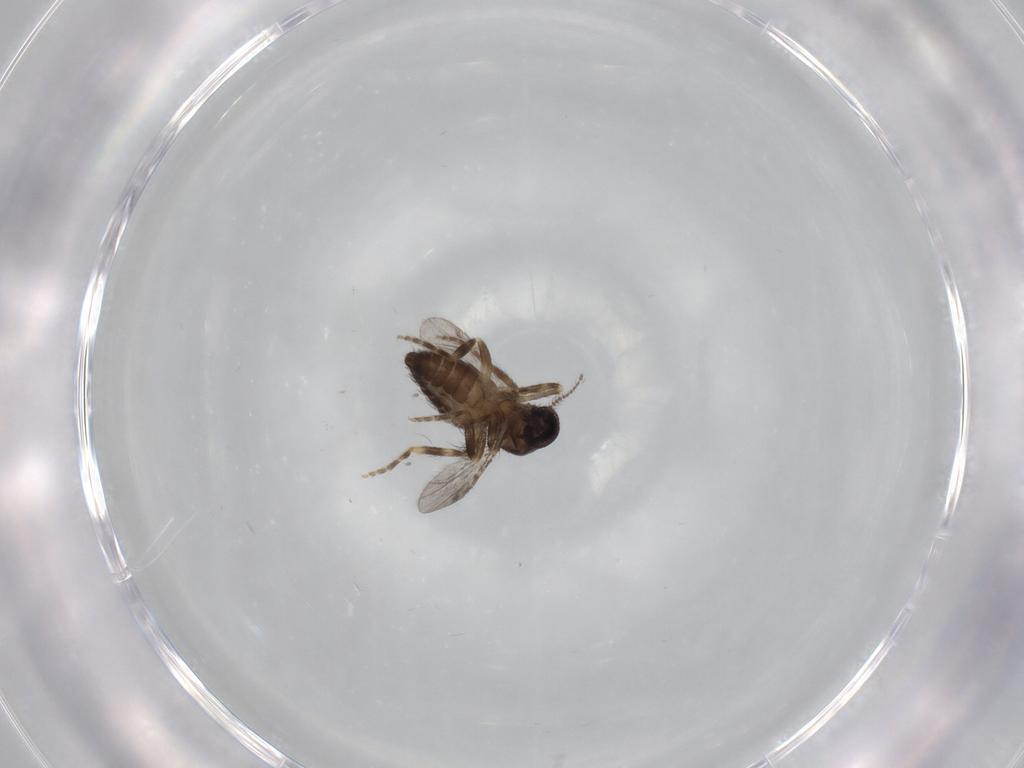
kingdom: Animalia
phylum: Arthropoda
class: Insecta
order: Diptera
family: Ceratopogonidae
